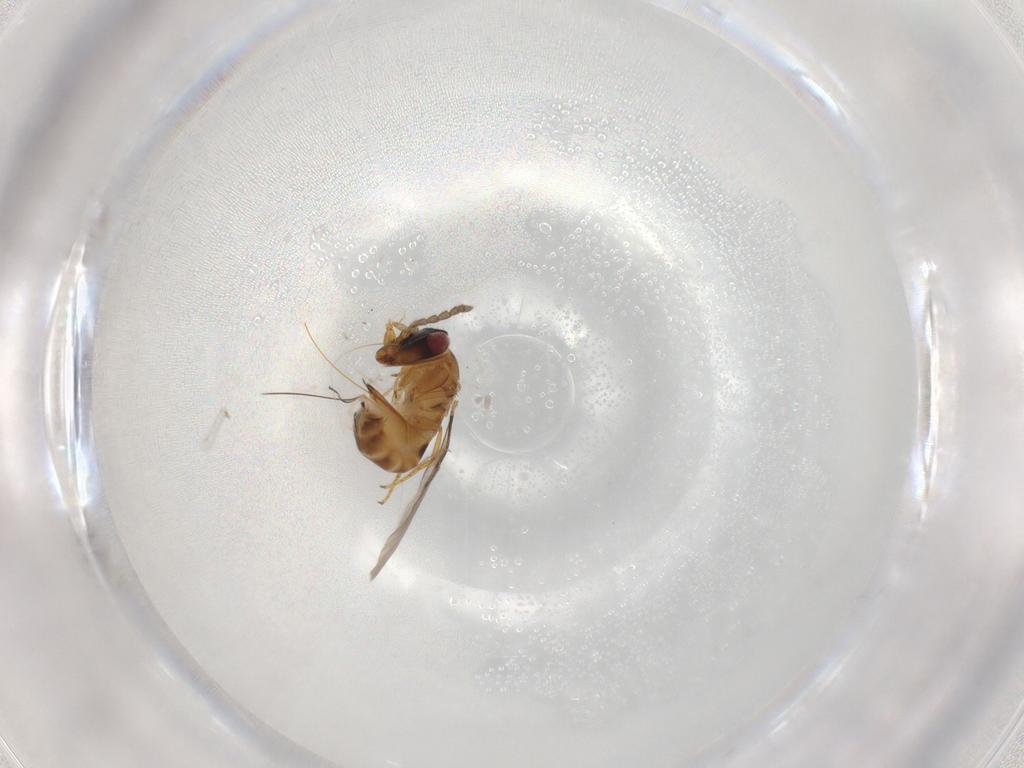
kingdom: Animalia
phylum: Arthropoda
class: Insecta
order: Hymenoptera
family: Agaonidae
